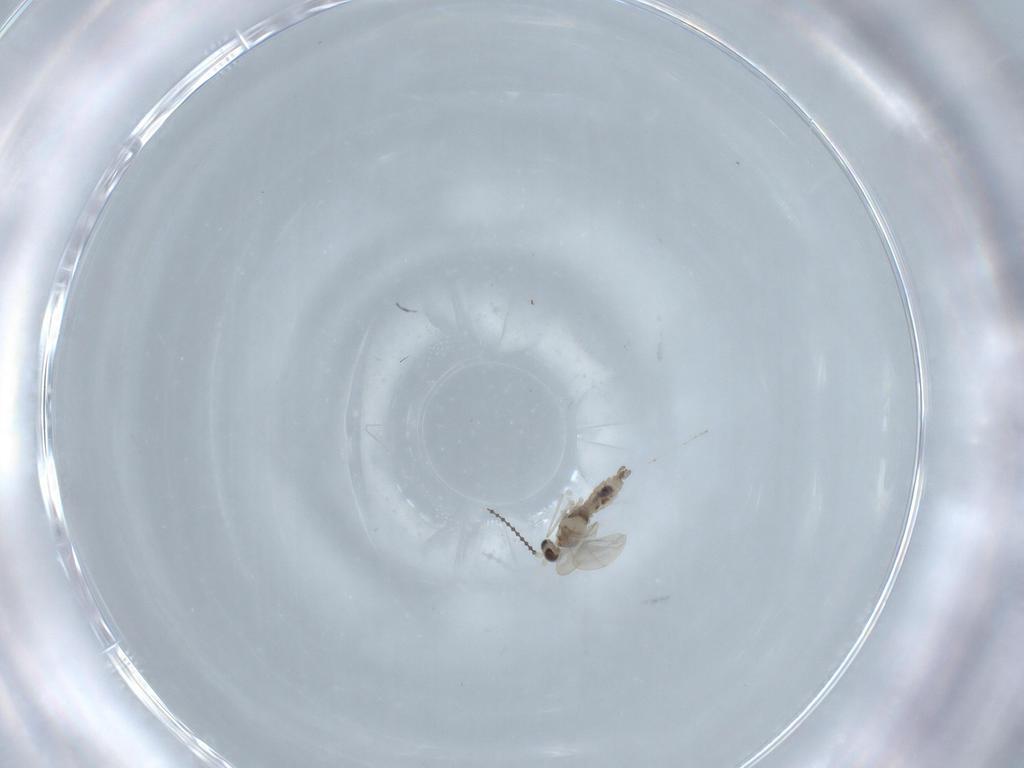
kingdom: Animalia
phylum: Arthropoda
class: Insecta
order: Diptera
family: Cecidomyiidae
